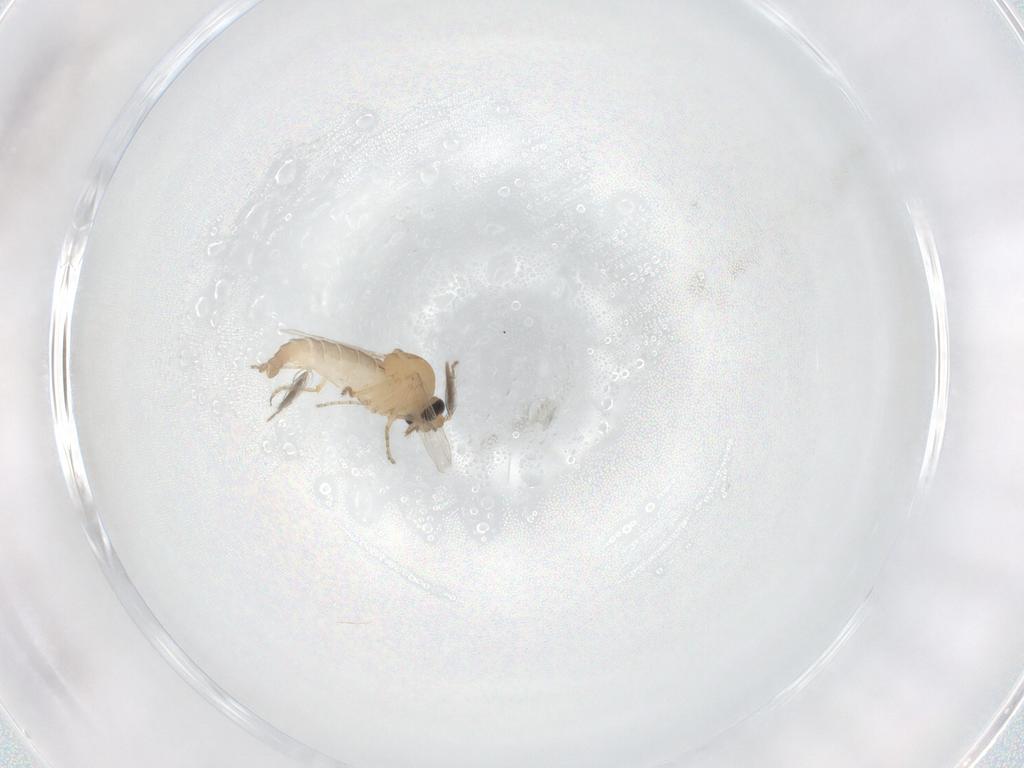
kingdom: Animalia
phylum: Arthropoda
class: Insecta
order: Diptera
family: Ceratopogonidae
